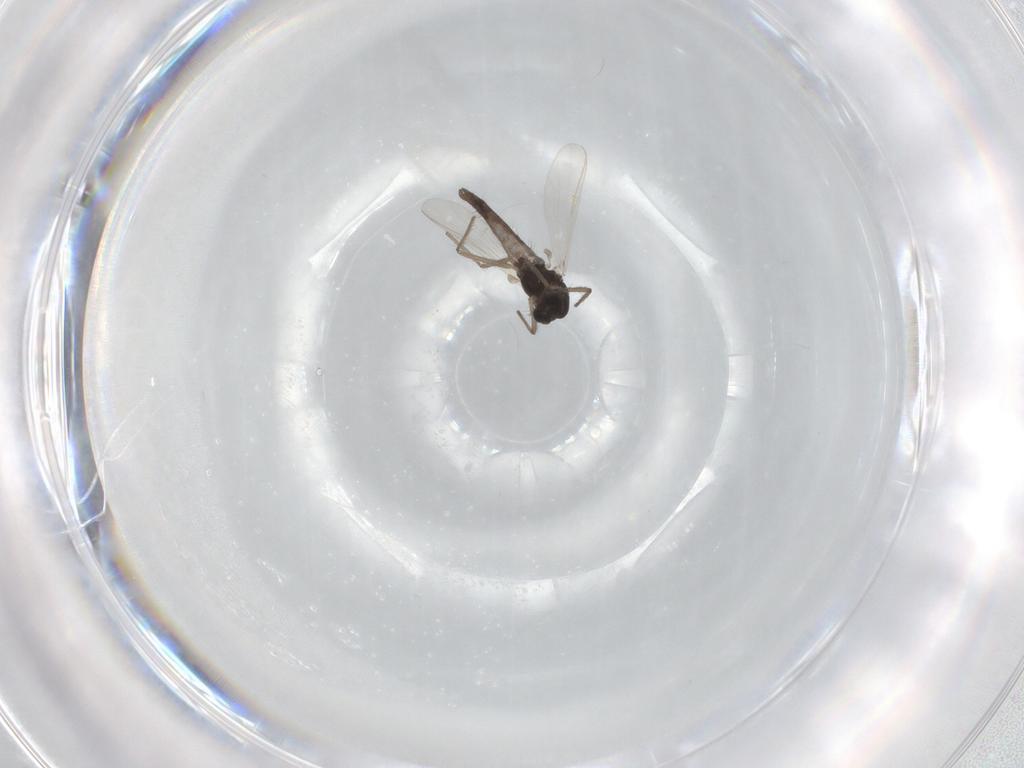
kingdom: Animalia
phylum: Arthropoda
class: Insecta
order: Diptera
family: Chironomidae
